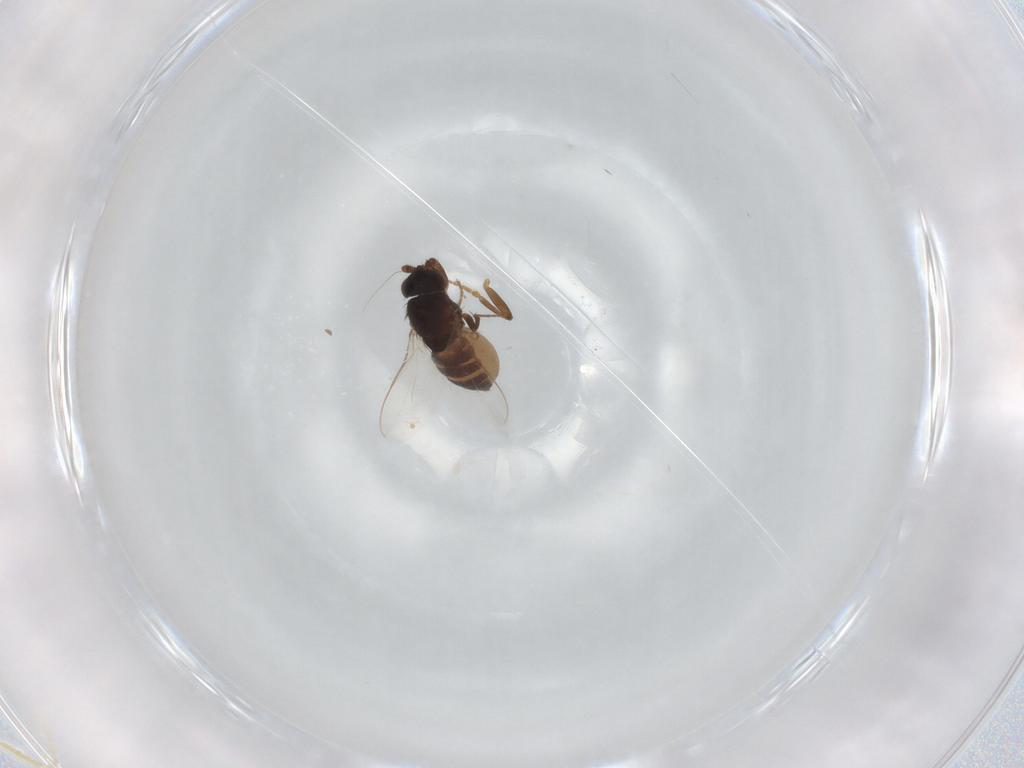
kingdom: Animalia
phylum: Arthropoda
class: Insecta
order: Diptera
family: Sphaeroceridae
